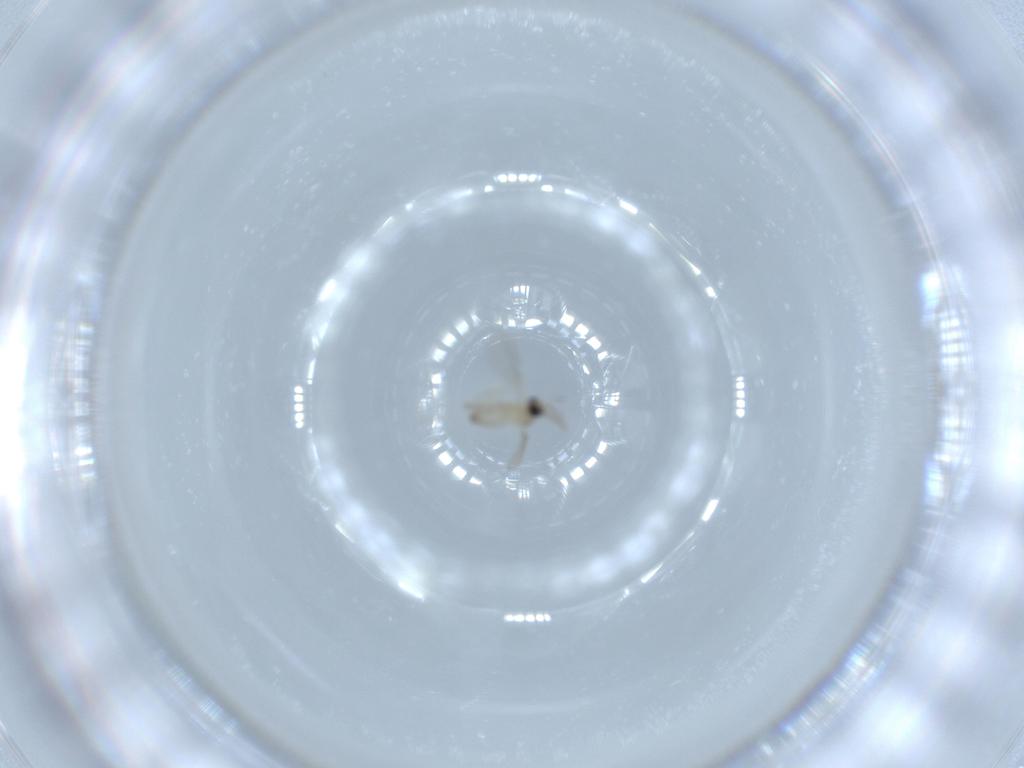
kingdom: Animalia
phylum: Arthropoda
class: Insecta
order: Diptera
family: Cecidomyiidae
